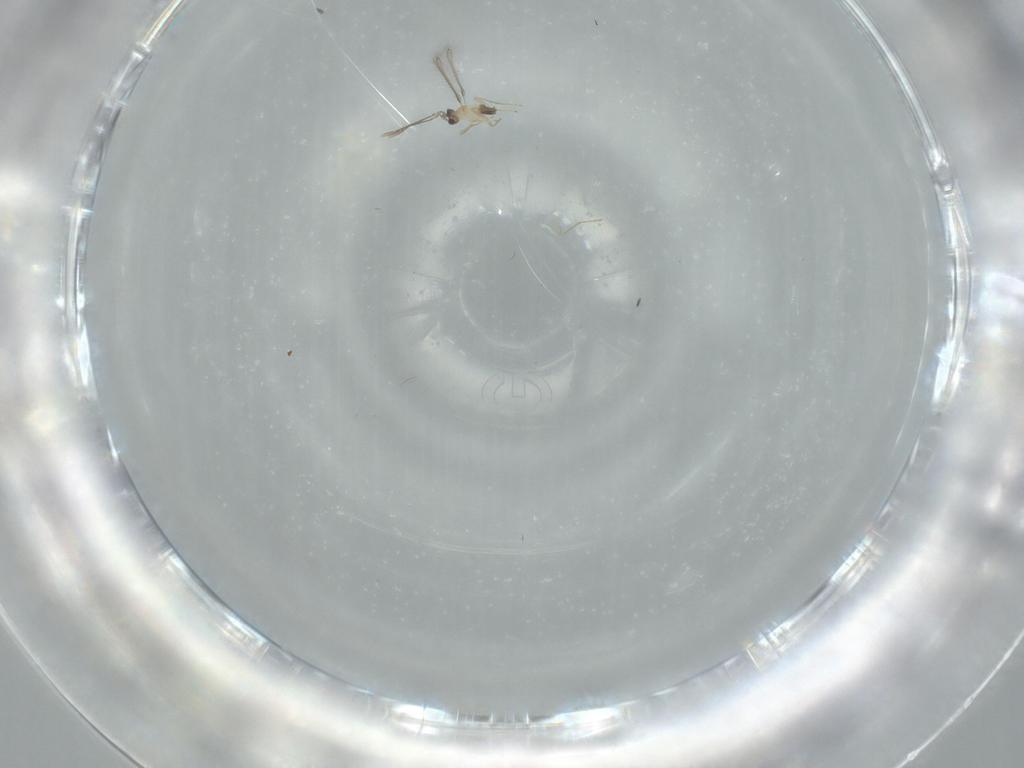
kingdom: Animalia
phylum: Arthropoda
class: Insecta
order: Hymenoptera
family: Mymaridae
